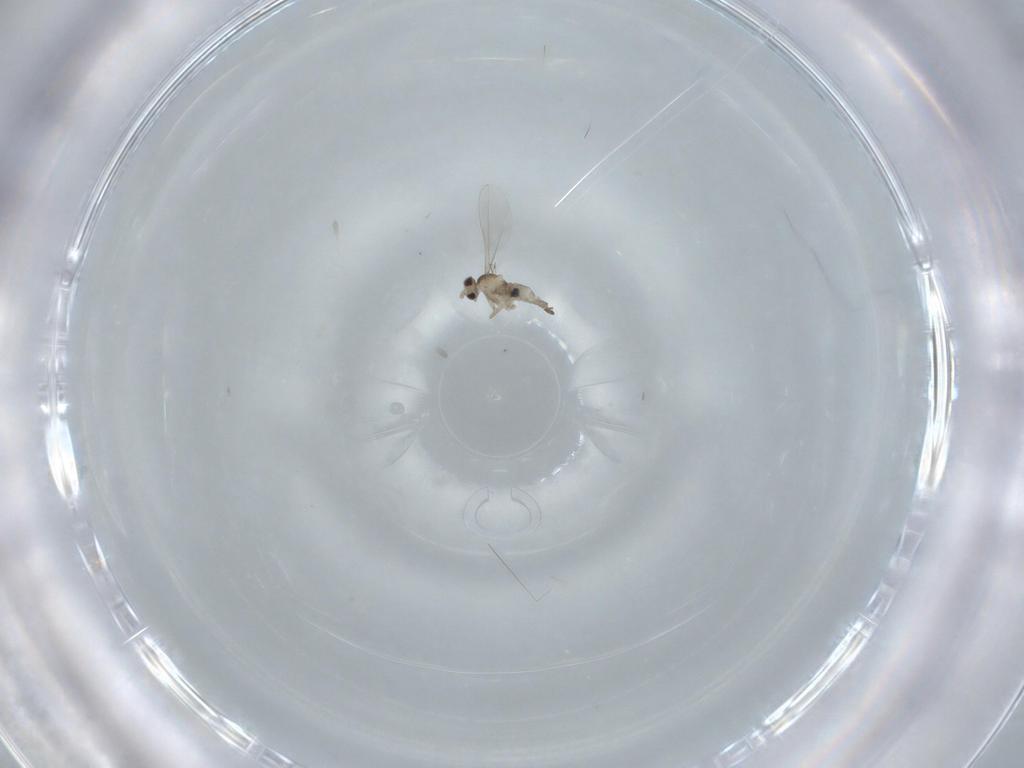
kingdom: Animalia
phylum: Arthropoda
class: Insecta
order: Diptera
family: Cecidomyiidae
